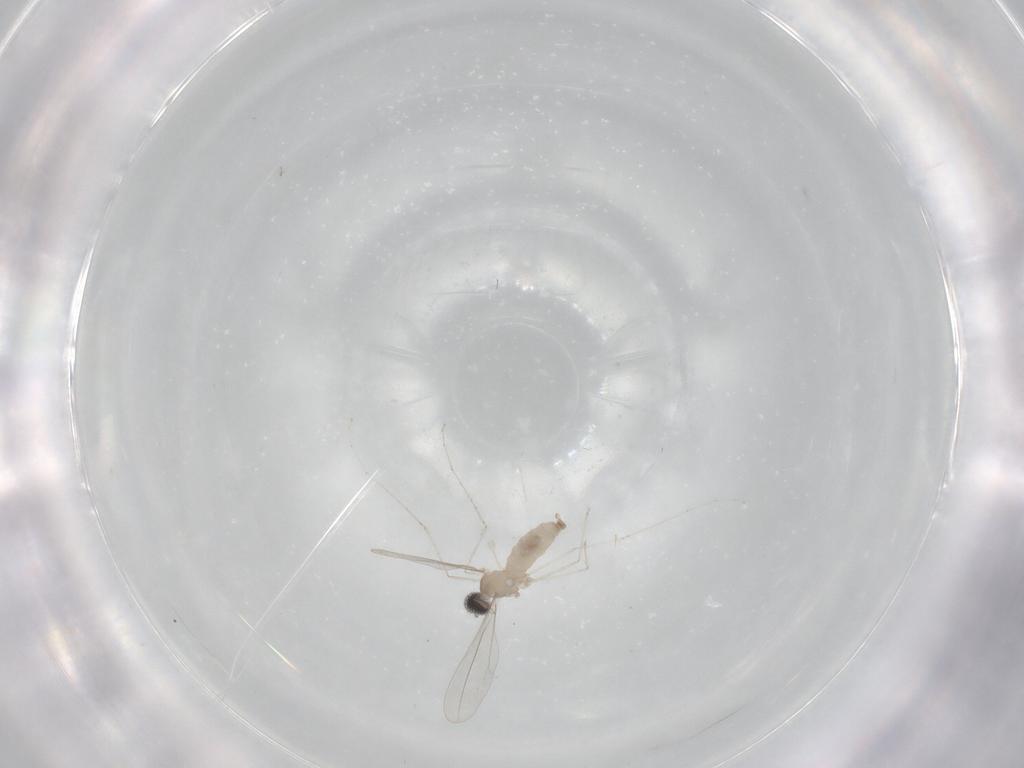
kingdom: Animalia
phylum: Arthropoda
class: Insecta
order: Diptera
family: Cecidomyiidae
